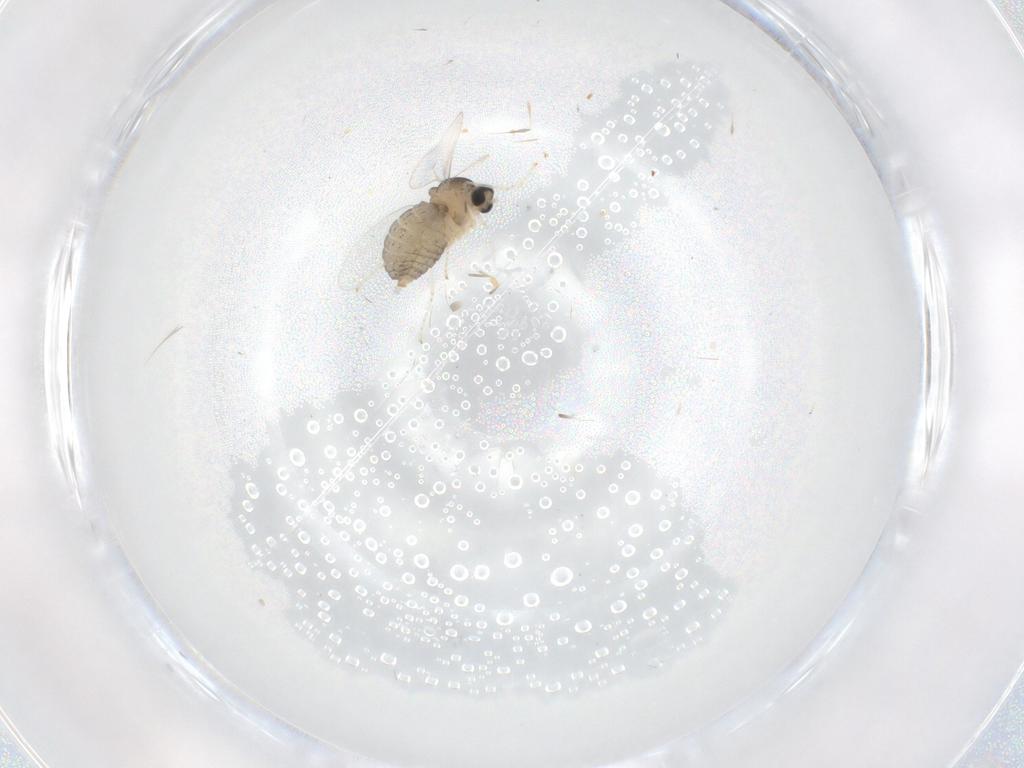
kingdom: Animalia
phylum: Arthropoda
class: Insecta
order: Diptera
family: Cecidomyiidae
